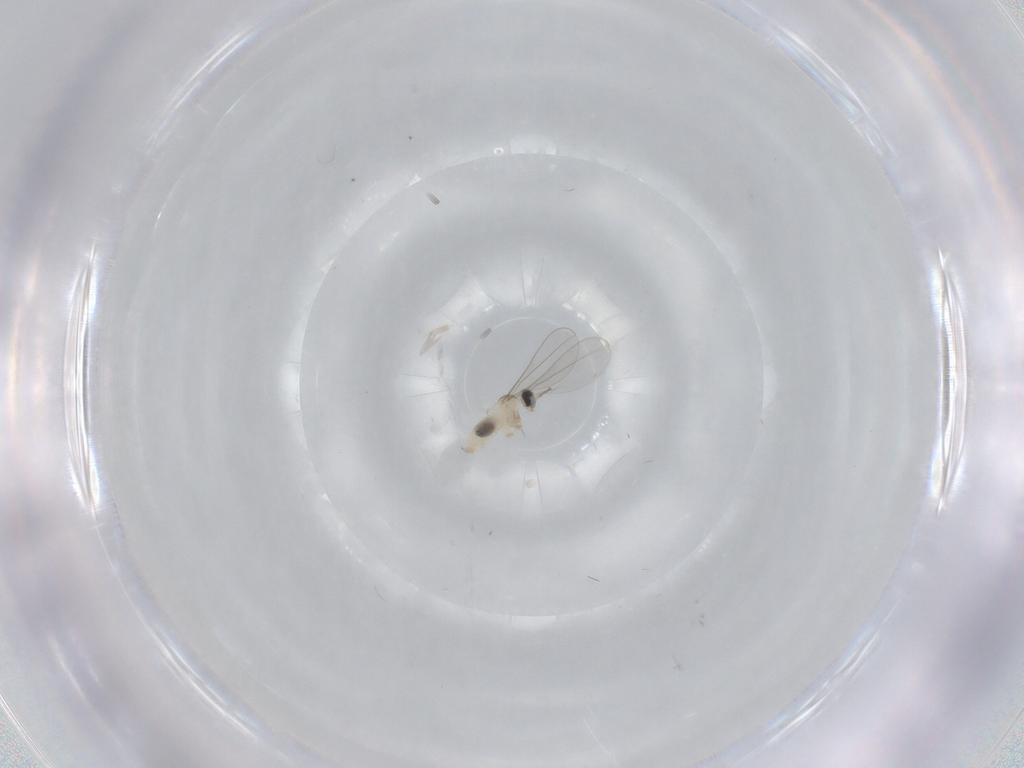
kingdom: Animalia
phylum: Arthropoda
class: Insecta
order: Diptera
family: Cecidomyiidae
